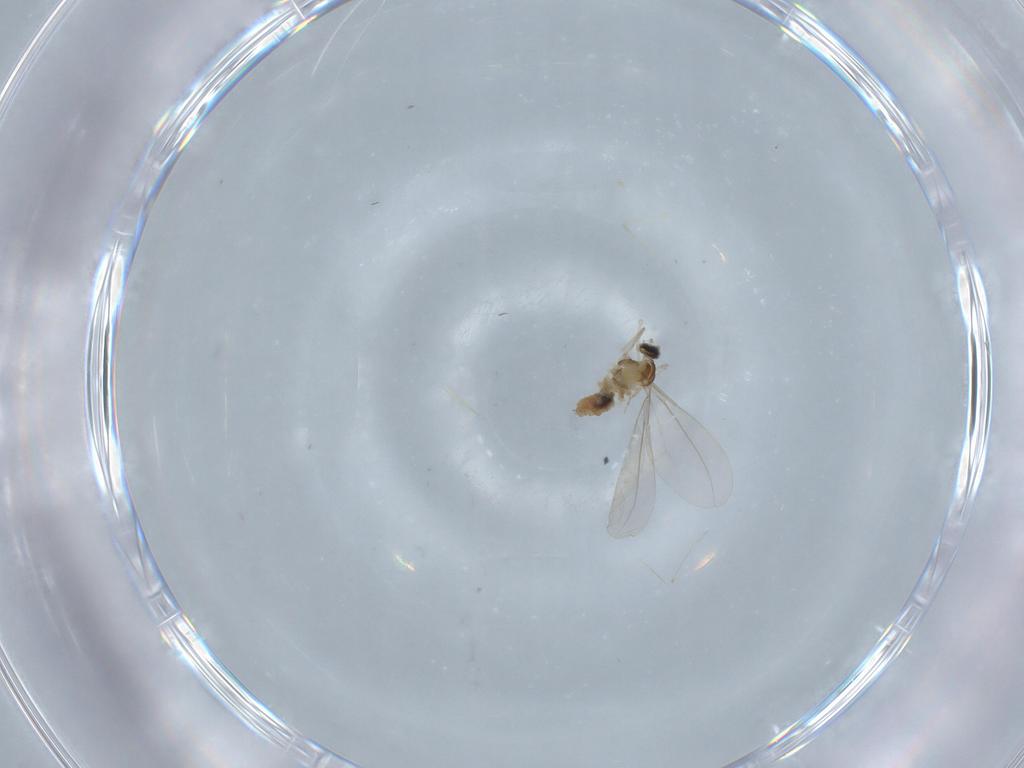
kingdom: Animalia
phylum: Arthropoda
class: Insecta
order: Diptera
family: Cecidomyiidae
